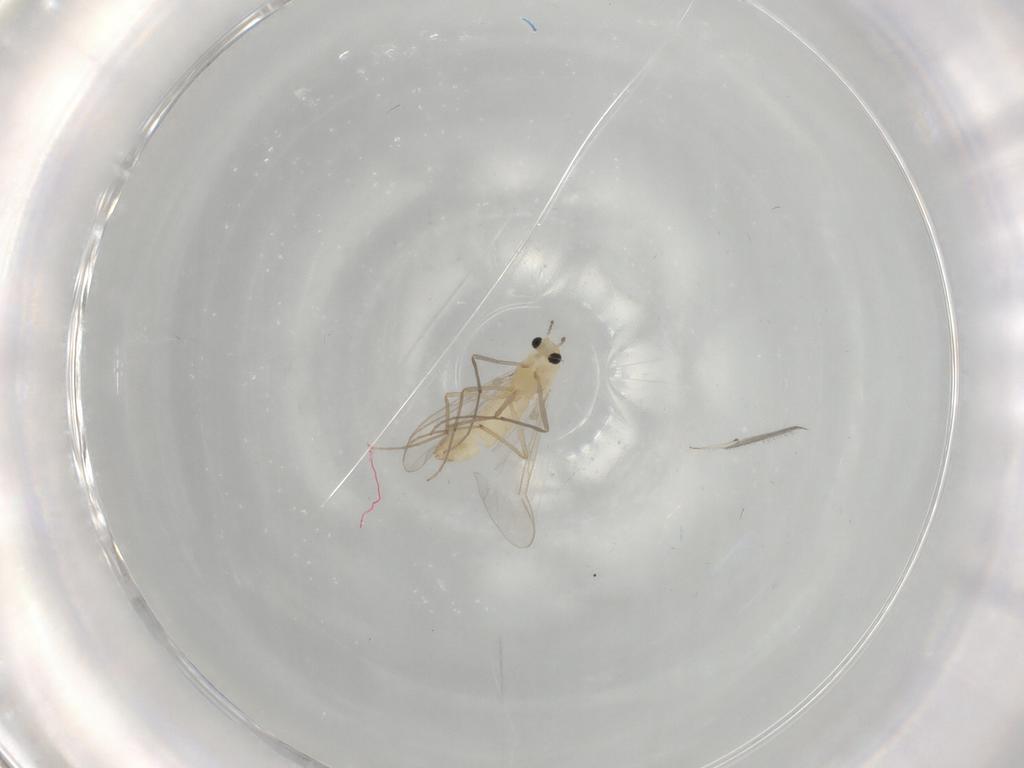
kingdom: Animalia
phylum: Arthropoda
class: Insecta
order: Diptera
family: Chironomidae
